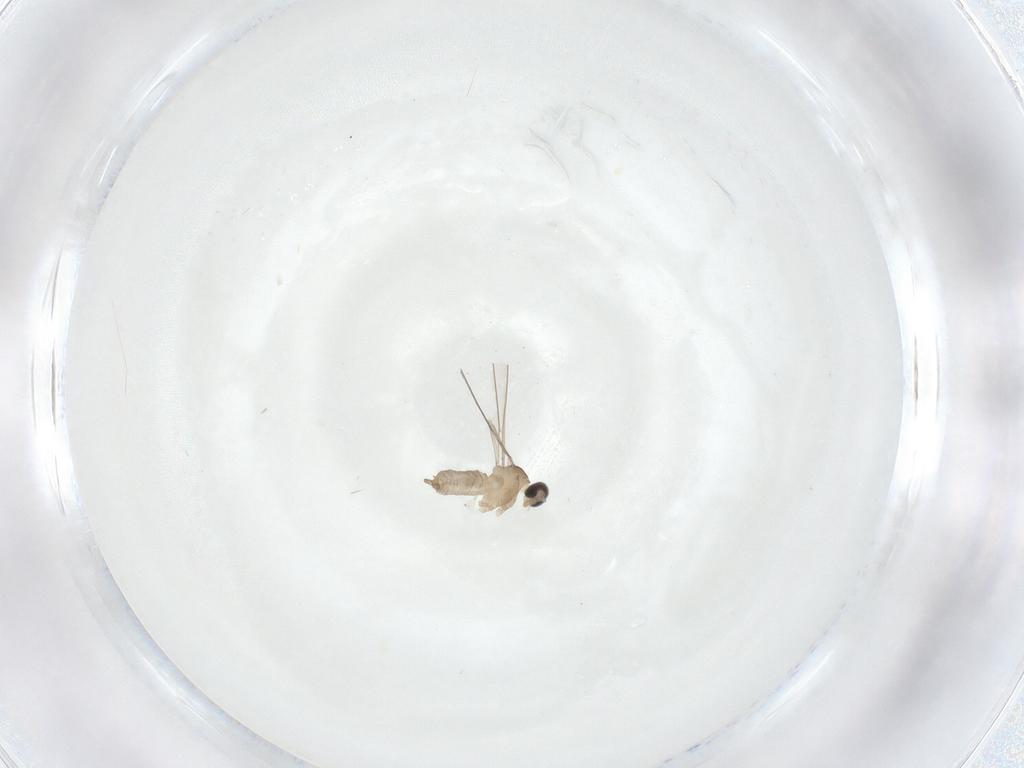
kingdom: Animalia
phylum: Arthropoda
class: Insecta
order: Diptera
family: Cecidomyiidae
